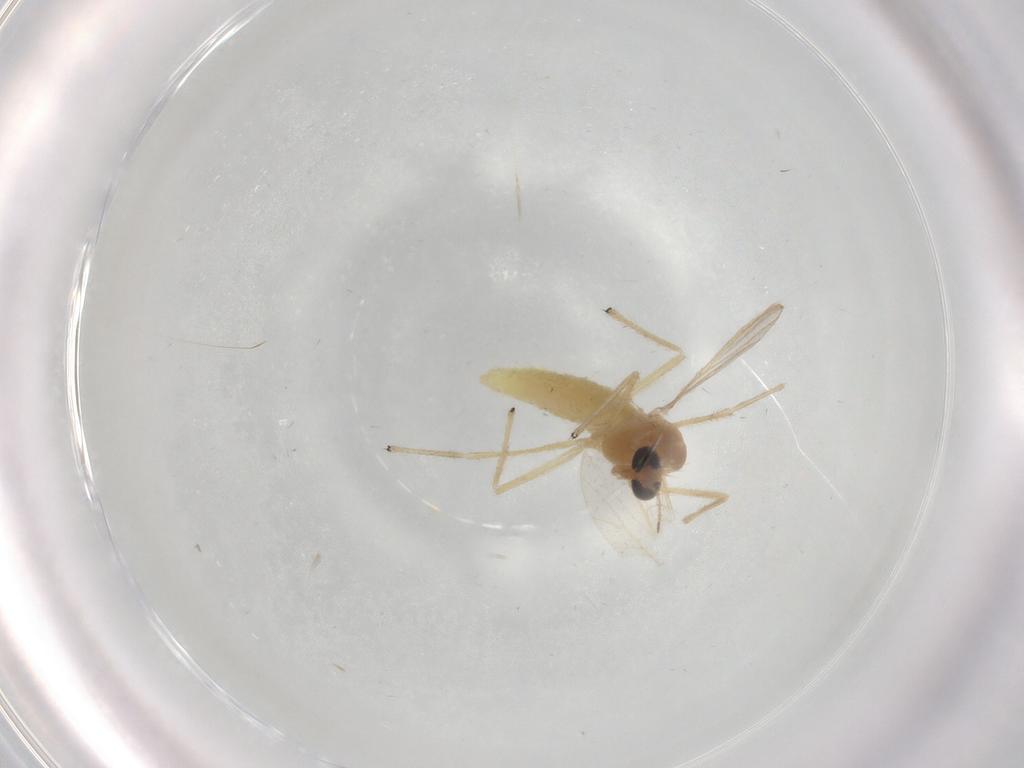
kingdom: Animalia
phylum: Arthropoda
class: Insecta
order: Diptera
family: Chironomidae
